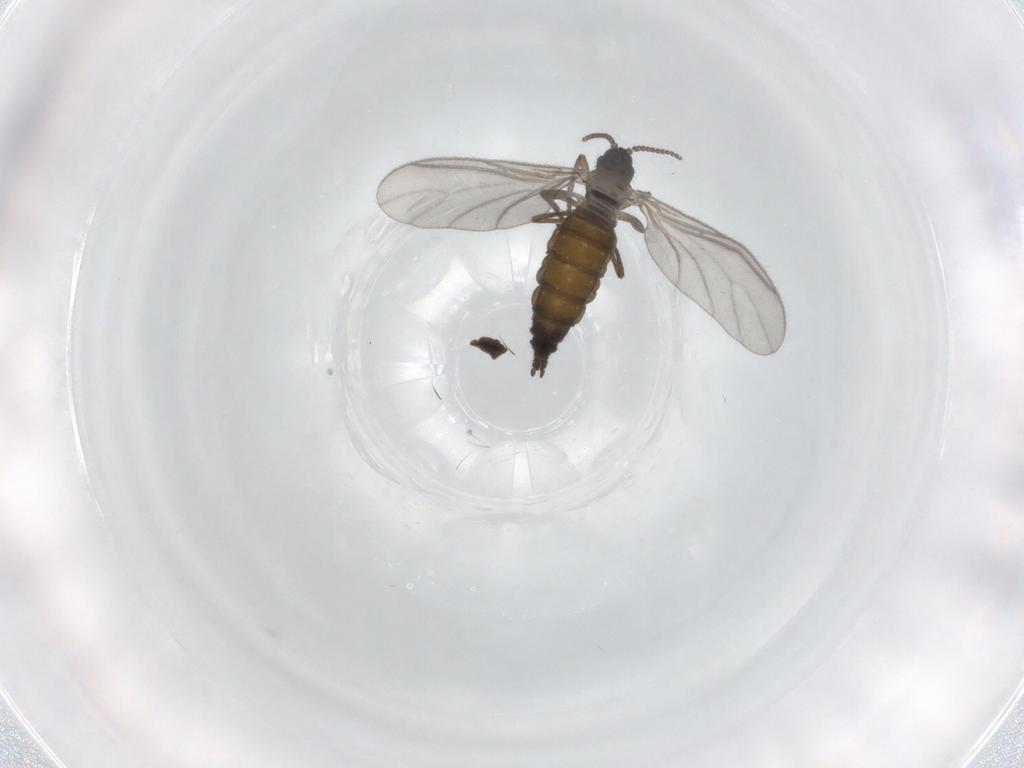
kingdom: Animalia
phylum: Arthropoda
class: Insecta
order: Diptera
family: Sciaridae
